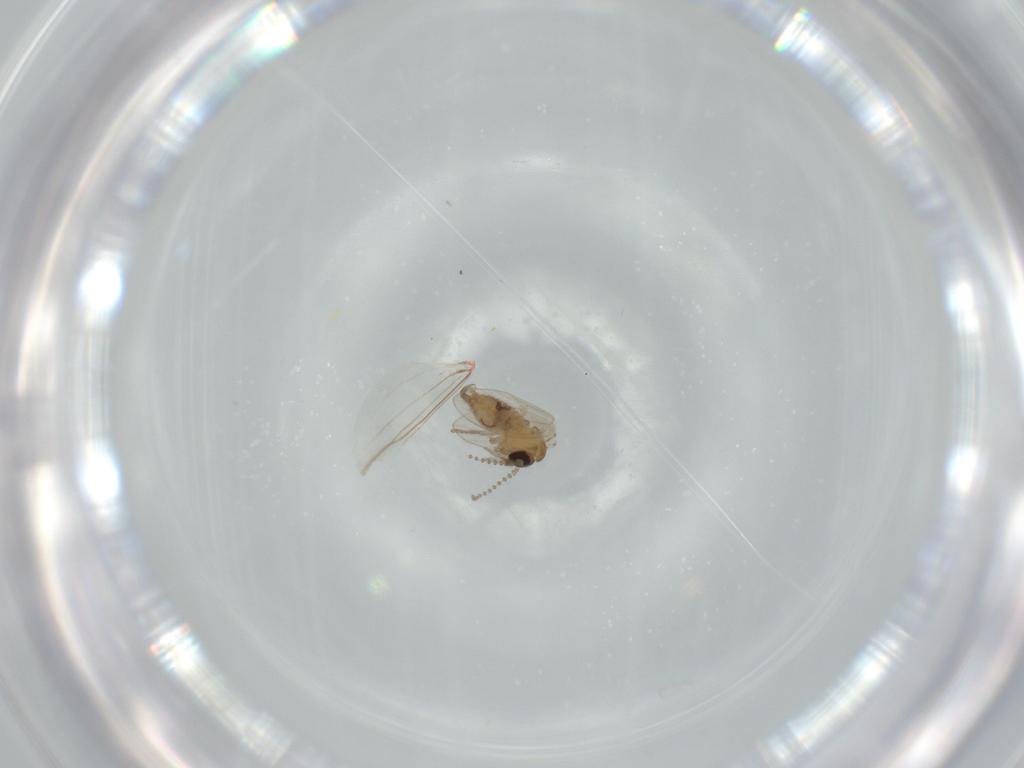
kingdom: Animalia
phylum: Arthropoda
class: Insecta
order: Diptera
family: Psychodidae
